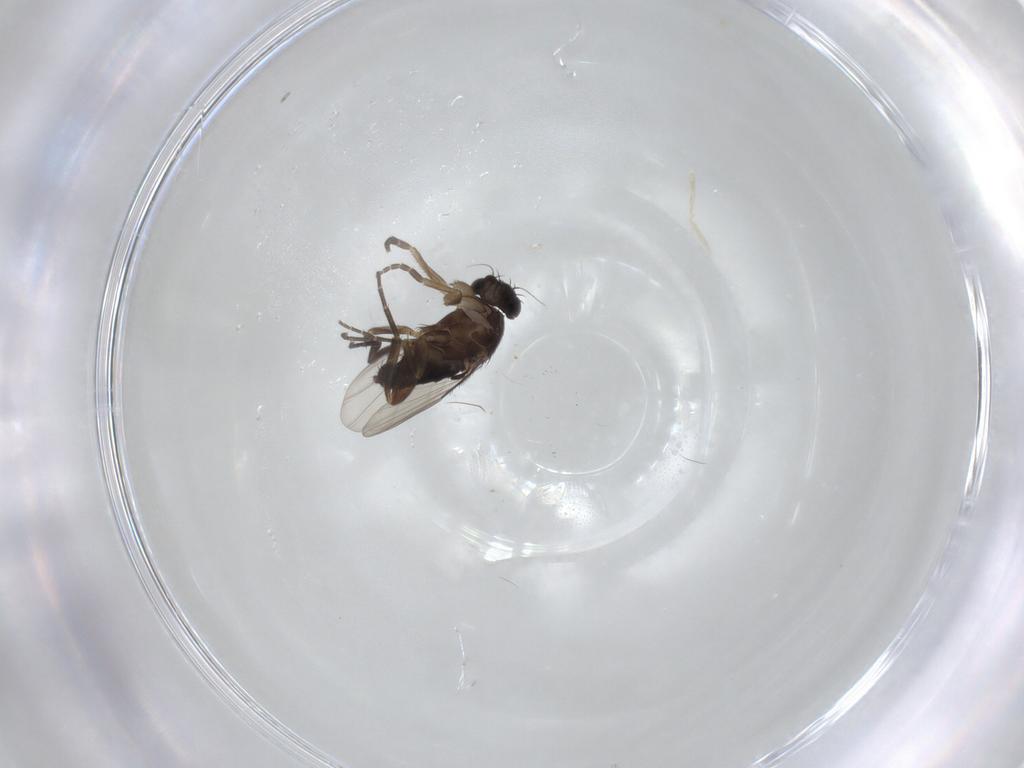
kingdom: Animalia
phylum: Arthropoda
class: Insecta
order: Diptera
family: Phoridae
